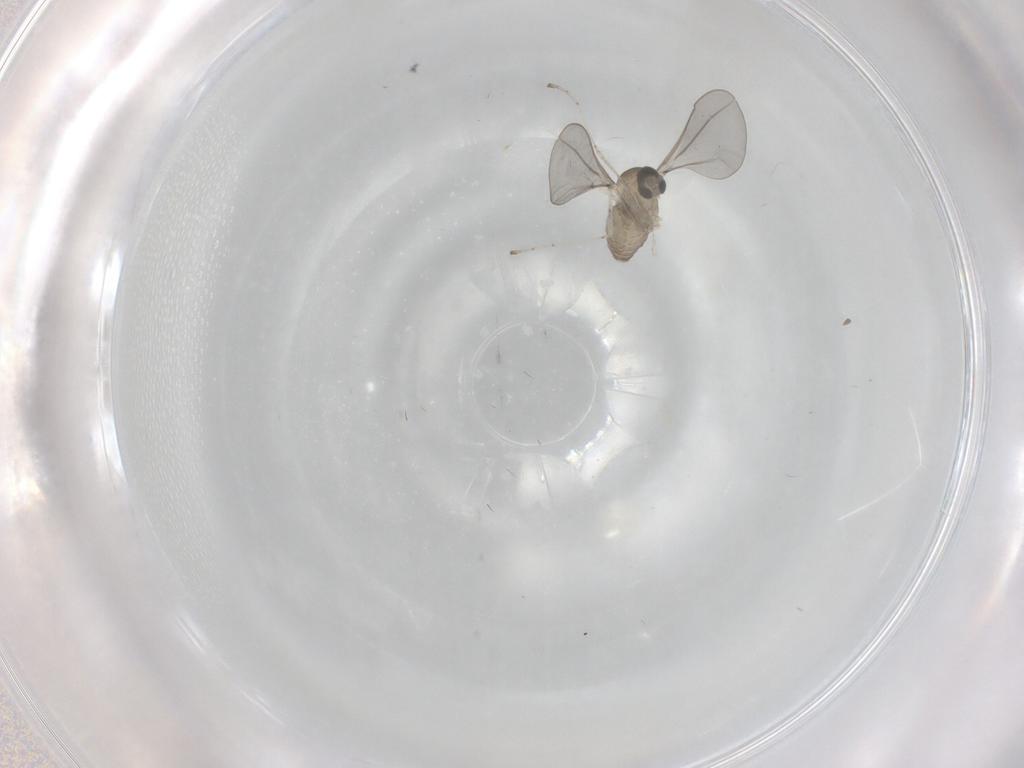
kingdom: Animalia
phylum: Arthropoda
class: Insecta
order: Diptera
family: Cecidomyiidae
